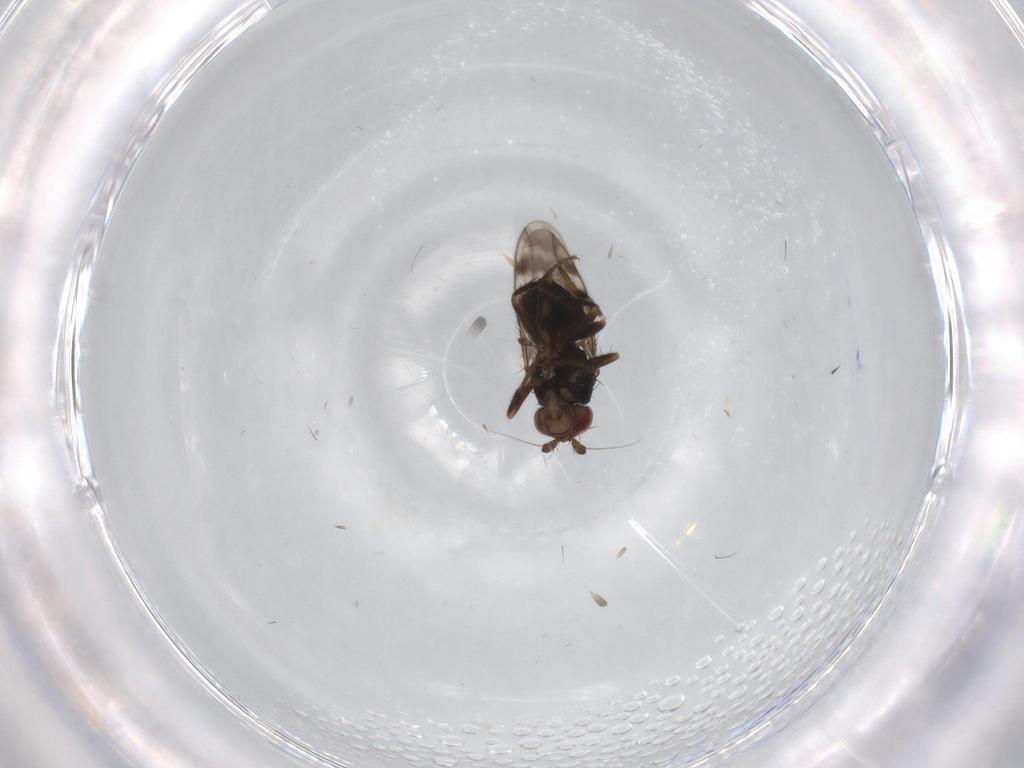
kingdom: Animalia
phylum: Arthropoda
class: Insecta
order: Diptera
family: Sphaeroceridae
